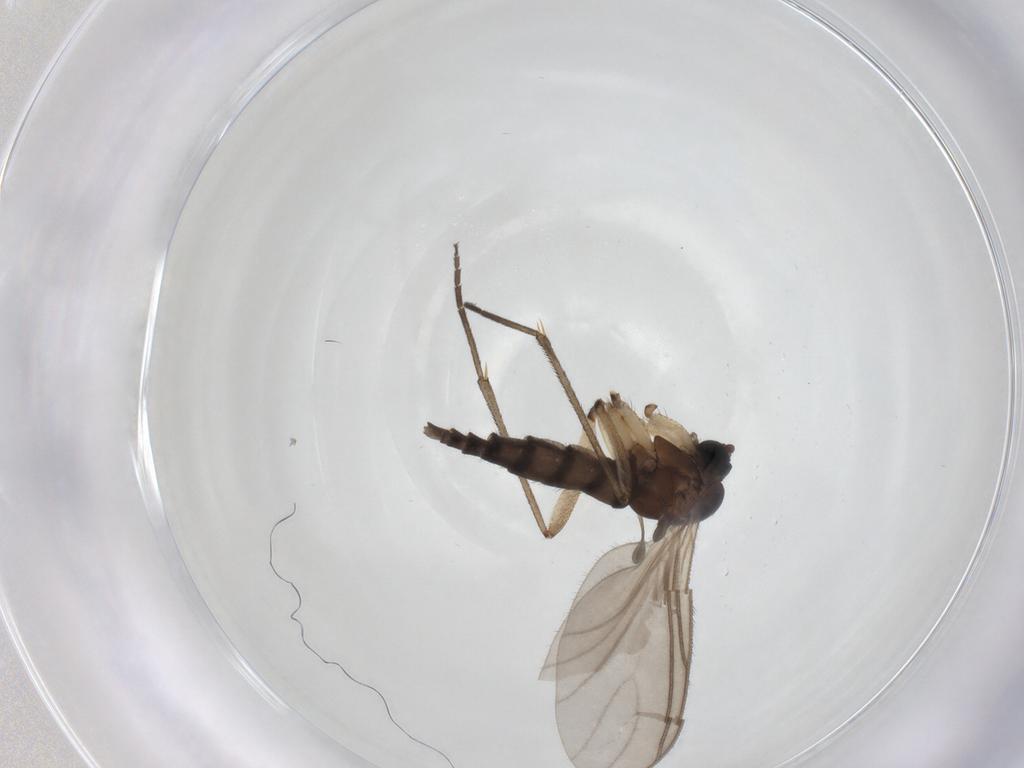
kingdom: Animalia
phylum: Arthropoda
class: Insecta
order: Diptera
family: Sciaridae
